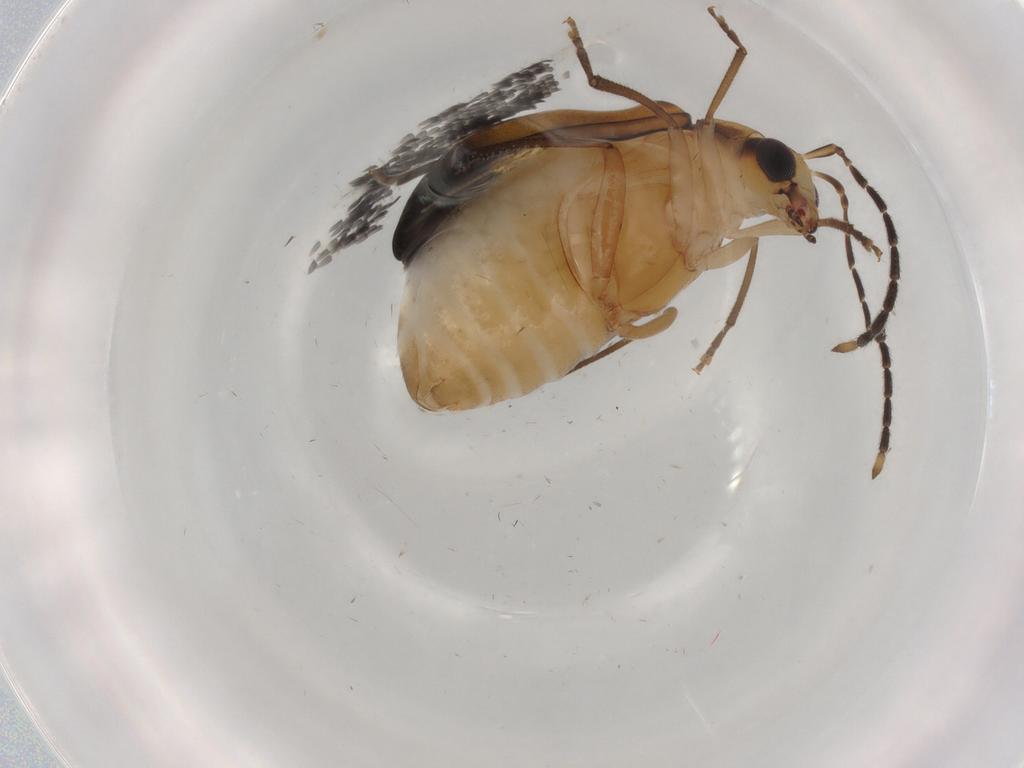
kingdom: Animalia
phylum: Arthropoda
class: Insecta
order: Coleoptera
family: Chrysomelidae
